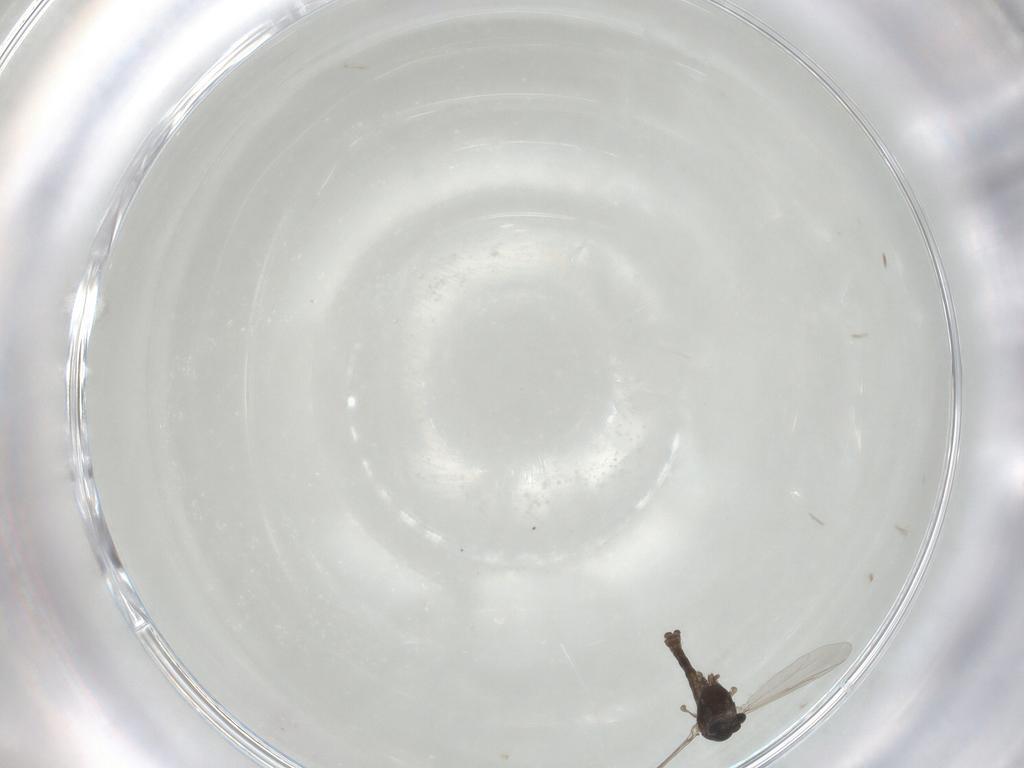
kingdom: Animalia
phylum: Arthropoda
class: Insecta
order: Diptera
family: Chironomidae
